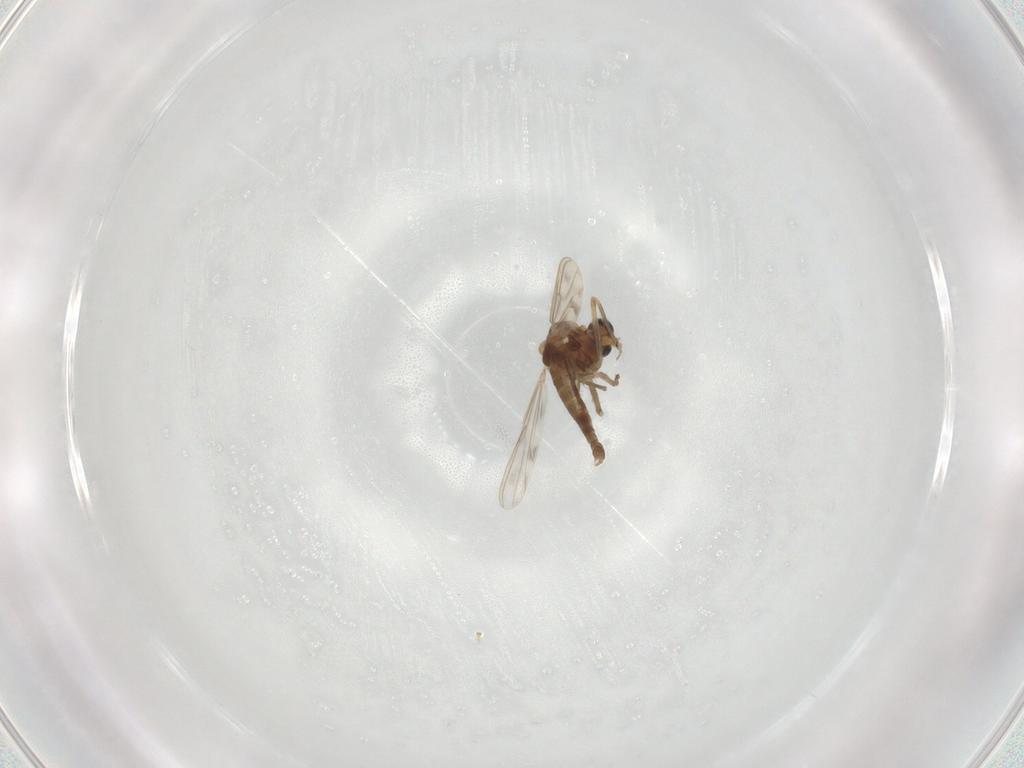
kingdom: Animalia
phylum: Arthropoda
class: Insecta
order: Diptera
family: Chironomidae
